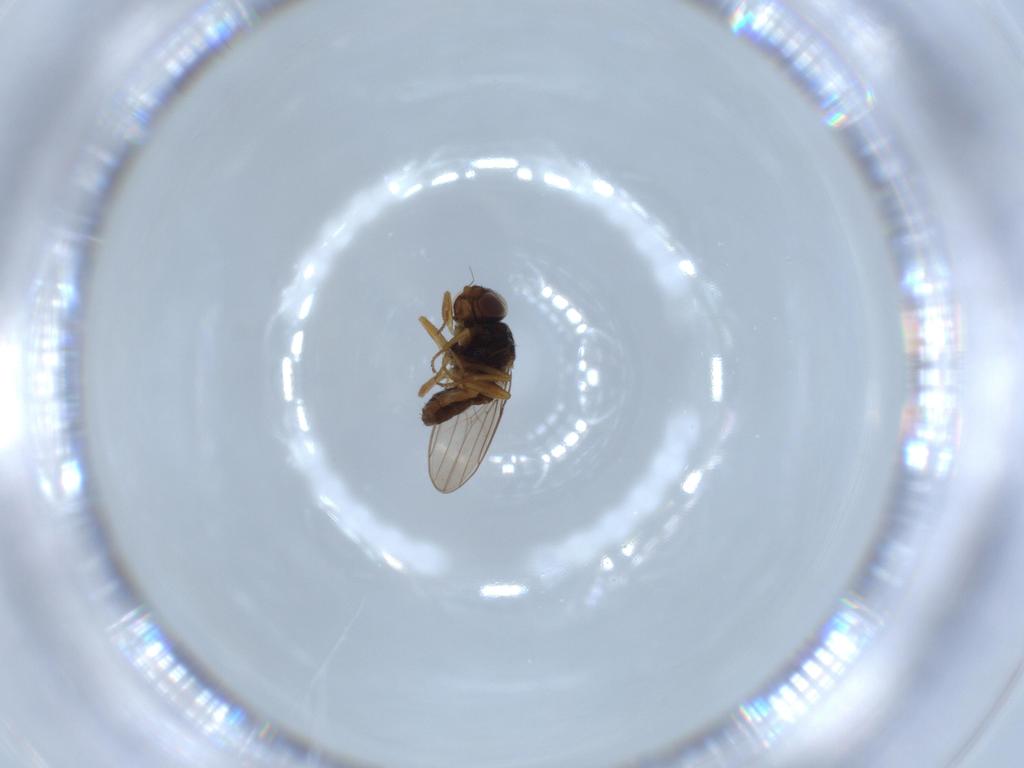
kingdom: Animalia
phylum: Arthropoda
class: Insecta
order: Diptera
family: Chloropidae
